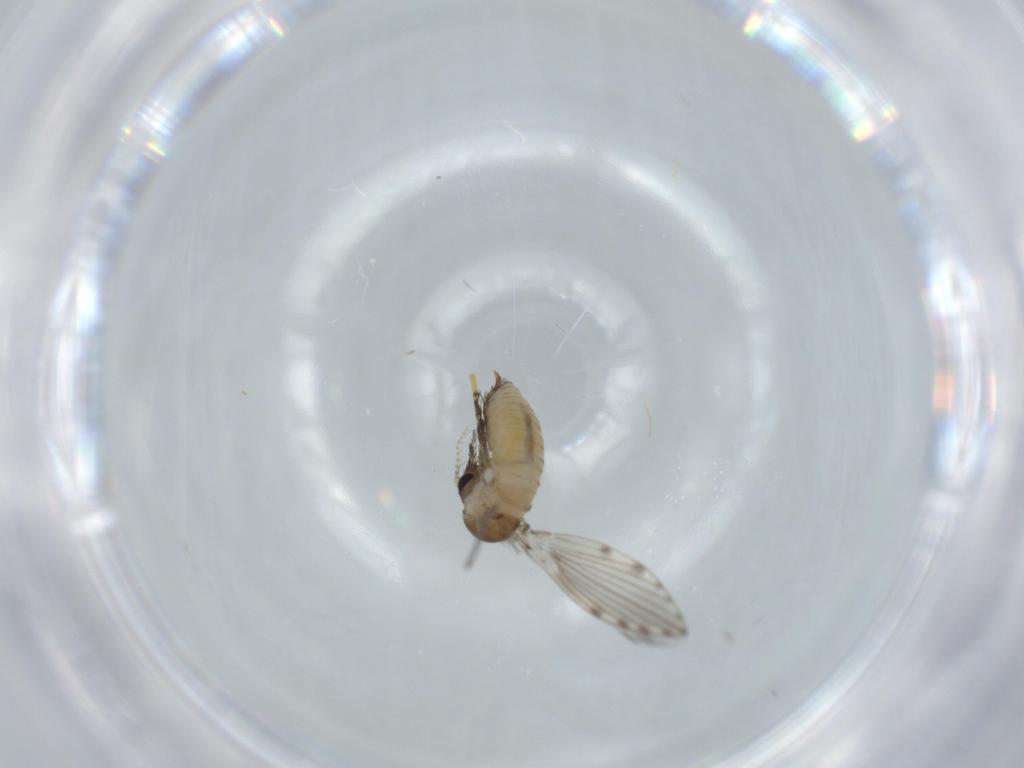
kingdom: Animalia
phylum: Arthropoda
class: Insecta
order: Diptera
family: Psychodidae
